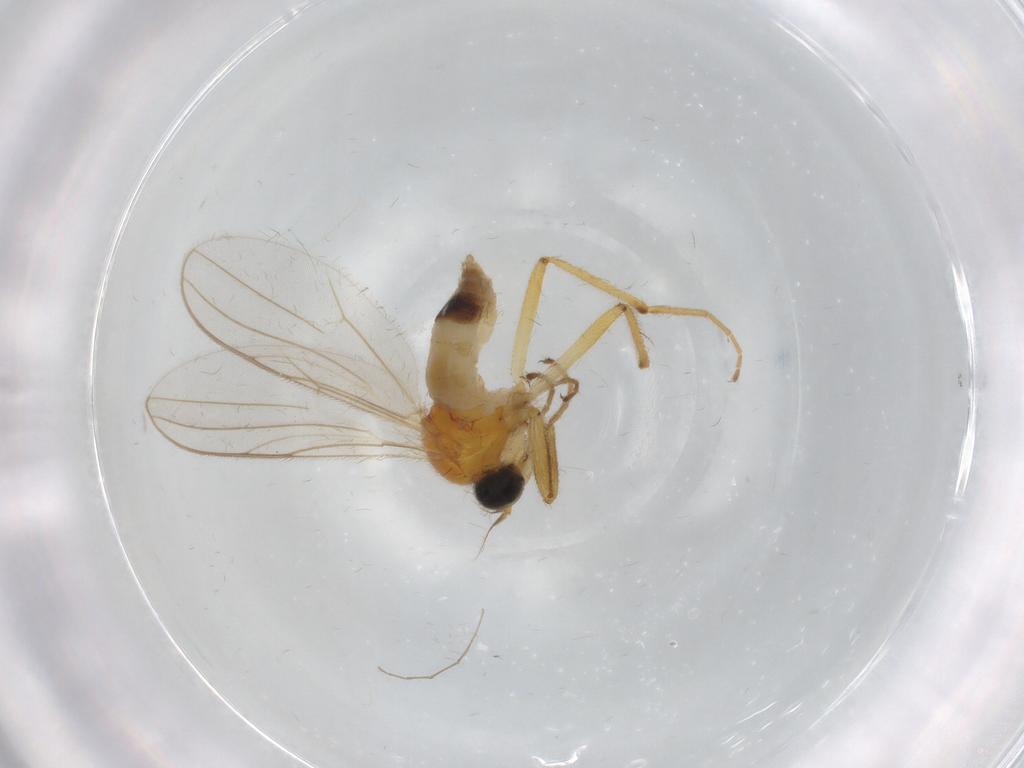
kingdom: Animalia
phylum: Arthropoda
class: Insecta
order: Diptera
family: Hybotidae
